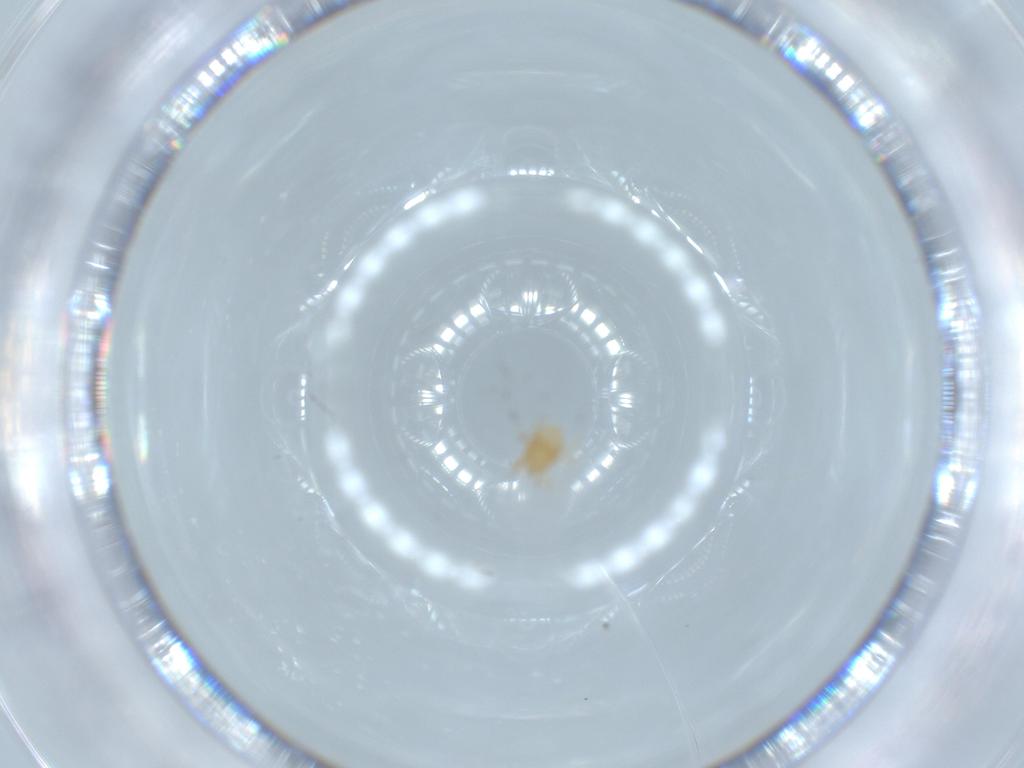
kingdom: Animalia
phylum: Arthropoda
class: Arachnida
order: Mesostigmata
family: Melicharidae
